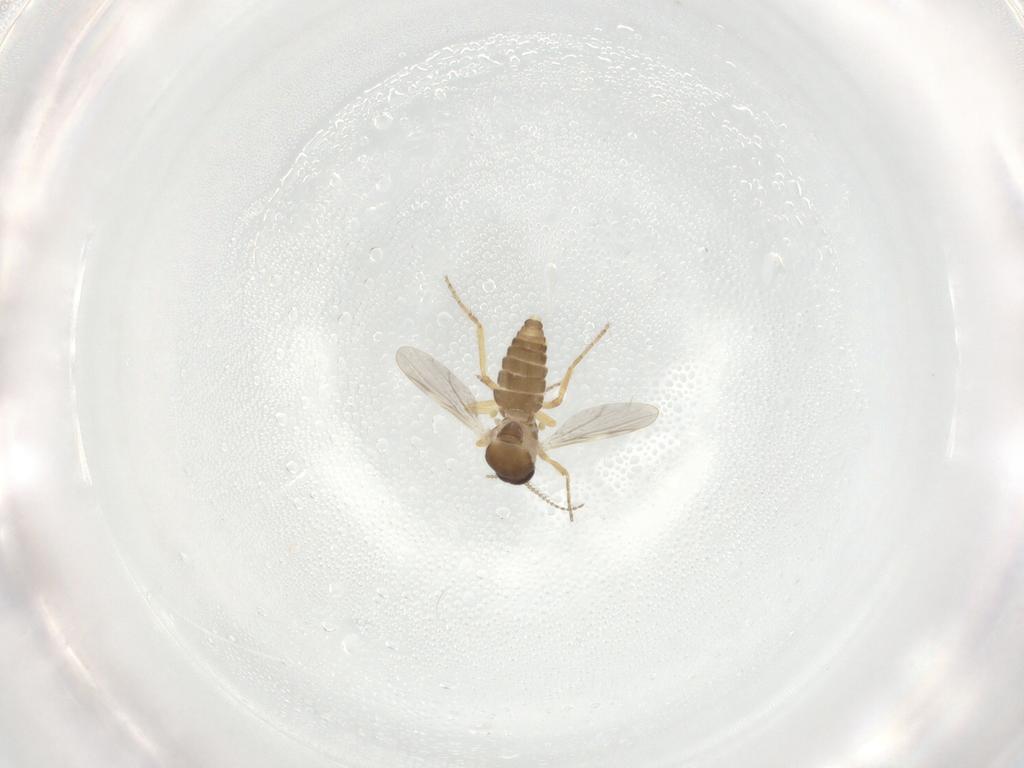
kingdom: Animalia
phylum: Arthropoda
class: Insecta
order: Diptera
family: Ceratopogonidae
